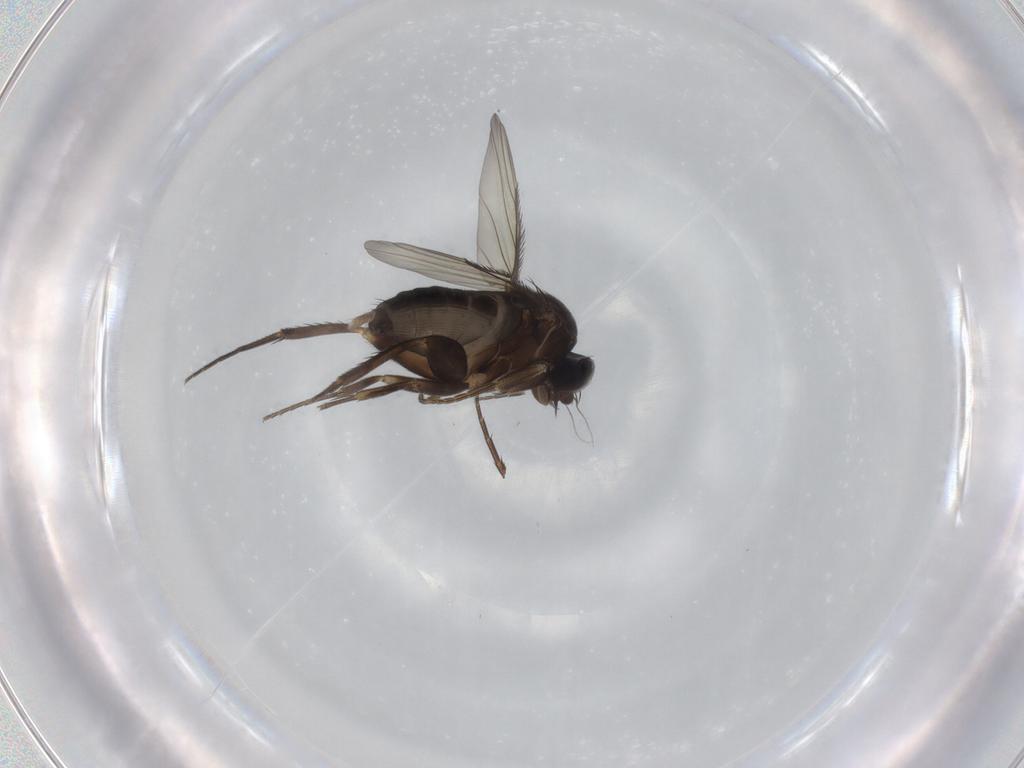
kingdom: Animalia
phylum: Arthropoda
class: Insecta
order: Diptera
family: Phoridae
